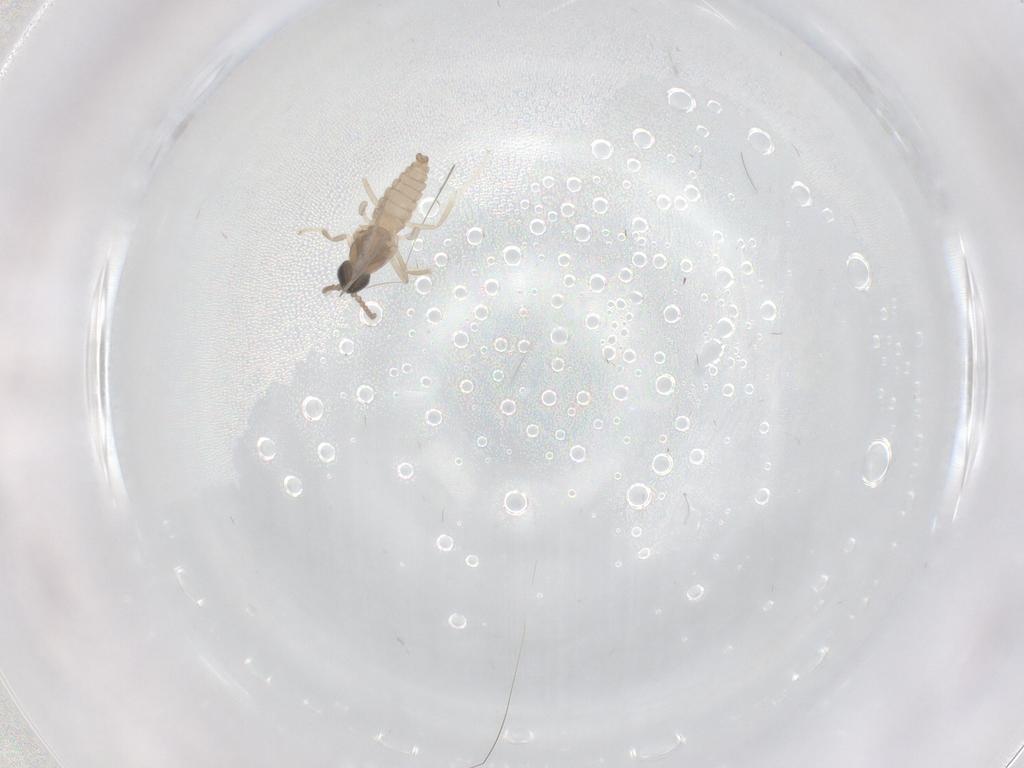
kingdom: Animalia
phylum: Arthropoda
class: Insecta
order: Diptera
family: Cecidomyiidae
